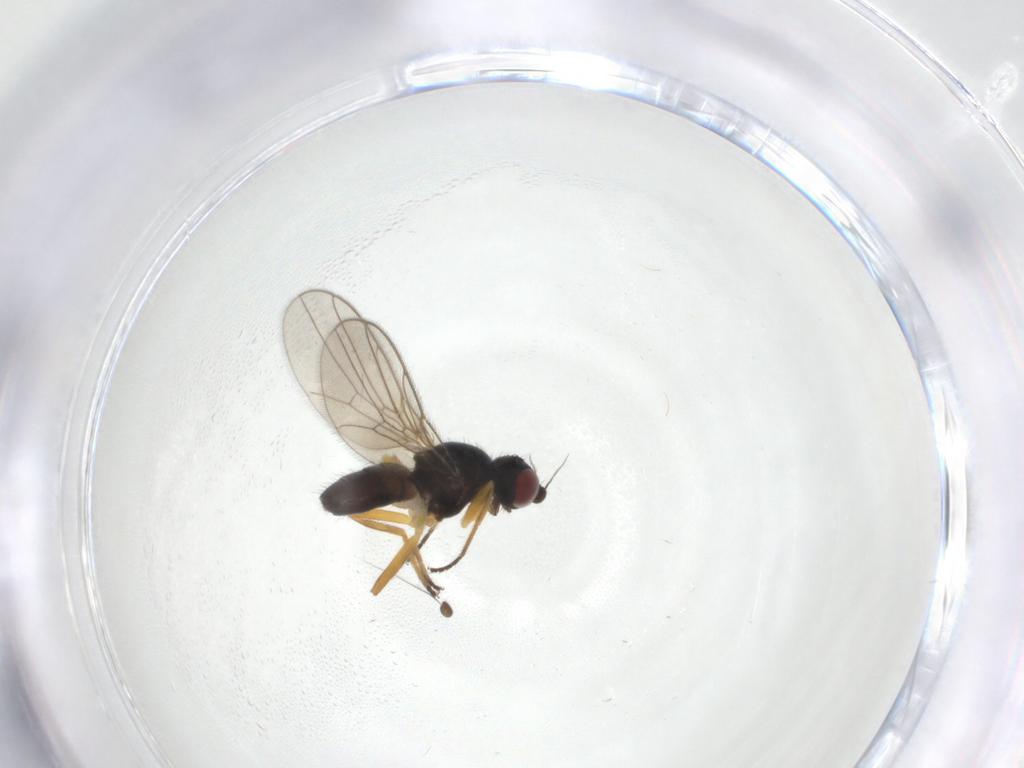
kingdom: Animalia
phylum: Arthropoda
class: Insecta
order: Diptera
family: Chloropidae
